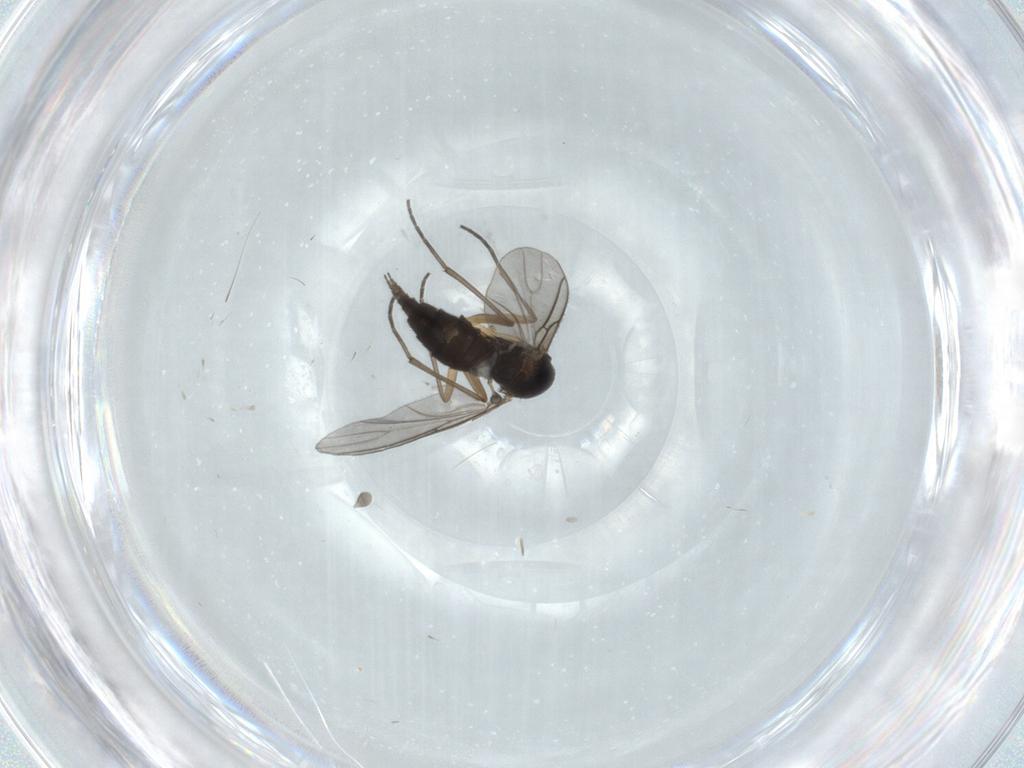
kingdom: Animalia
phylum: Arthropoda
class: Insecta
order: Diptera
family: Sciaridae
